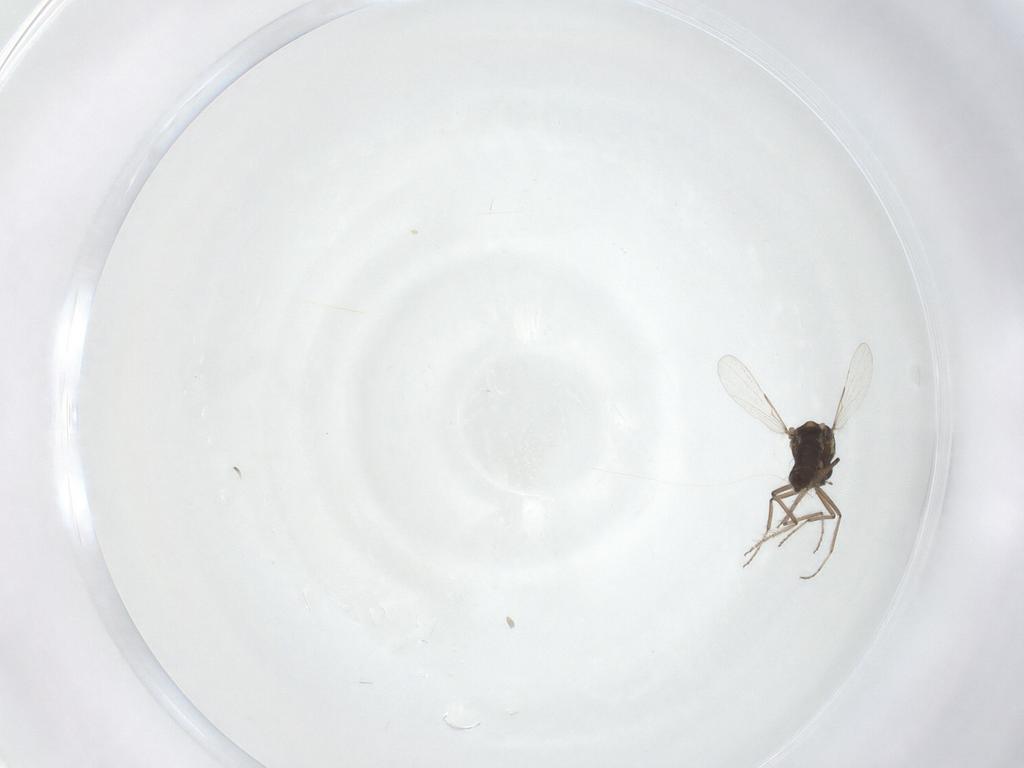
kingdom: Animalia
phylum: Arthropoda
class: Insecta
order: Diptera
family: Ceratopogonidae
